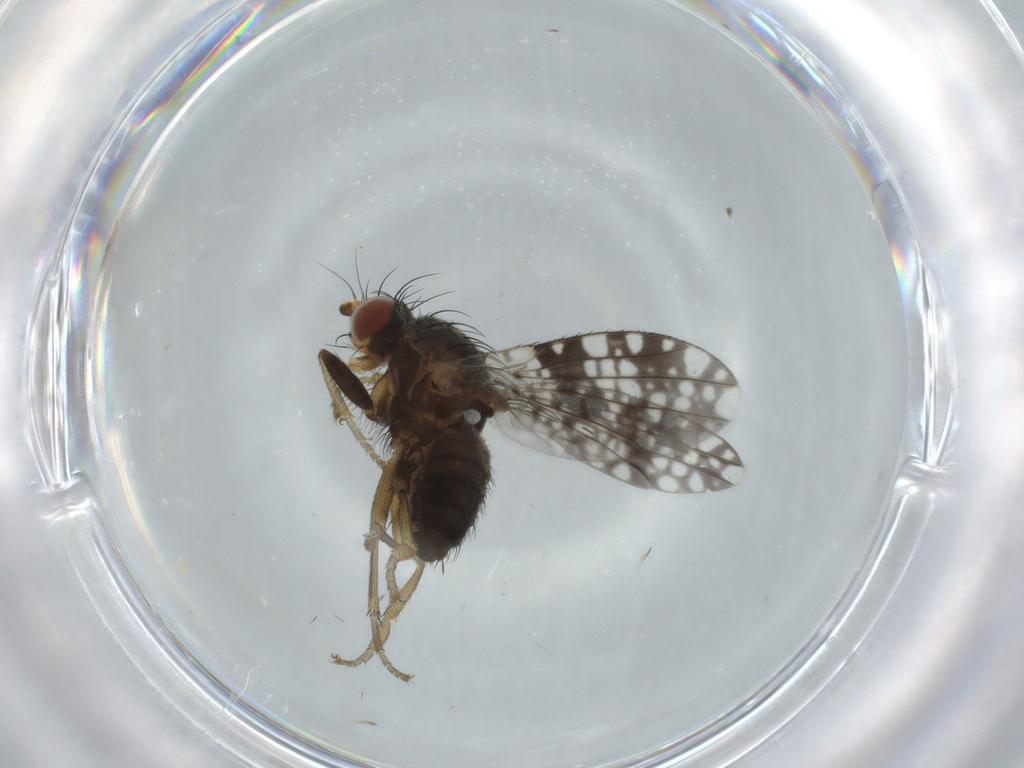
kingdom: Animalia
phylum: Arthropoda
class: Insecta
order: Diptera
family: Tephritidae
